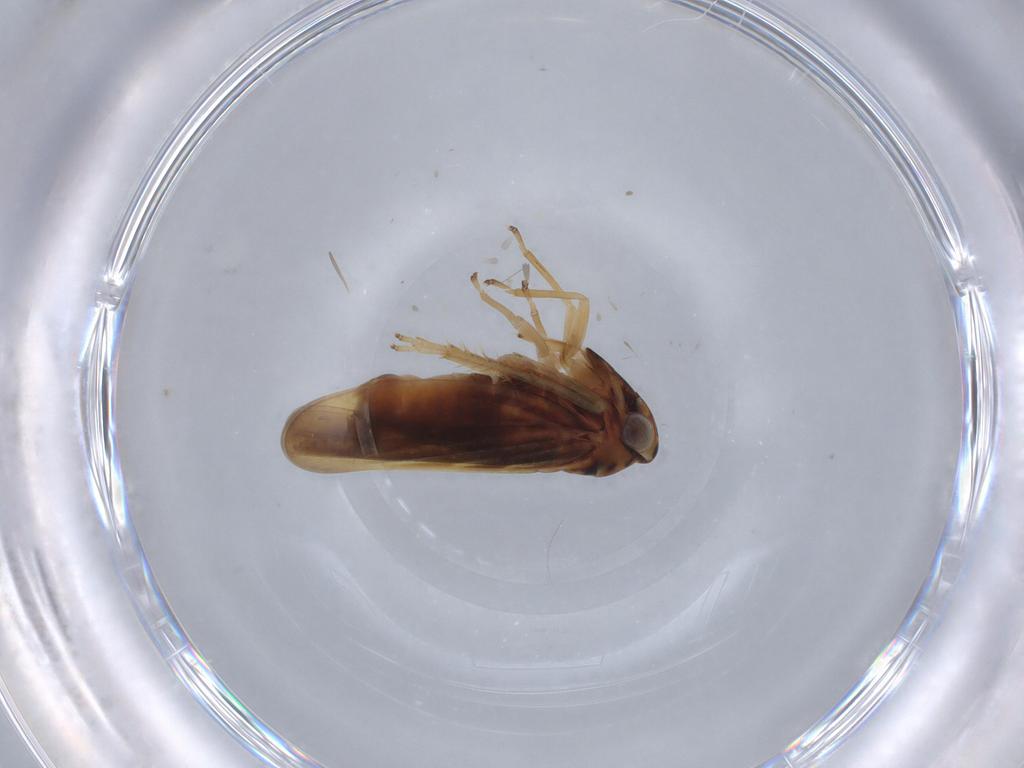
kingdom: Animalia
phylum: Arthropoda
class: Insecta
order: Hemiptera
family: Cicadellidae
